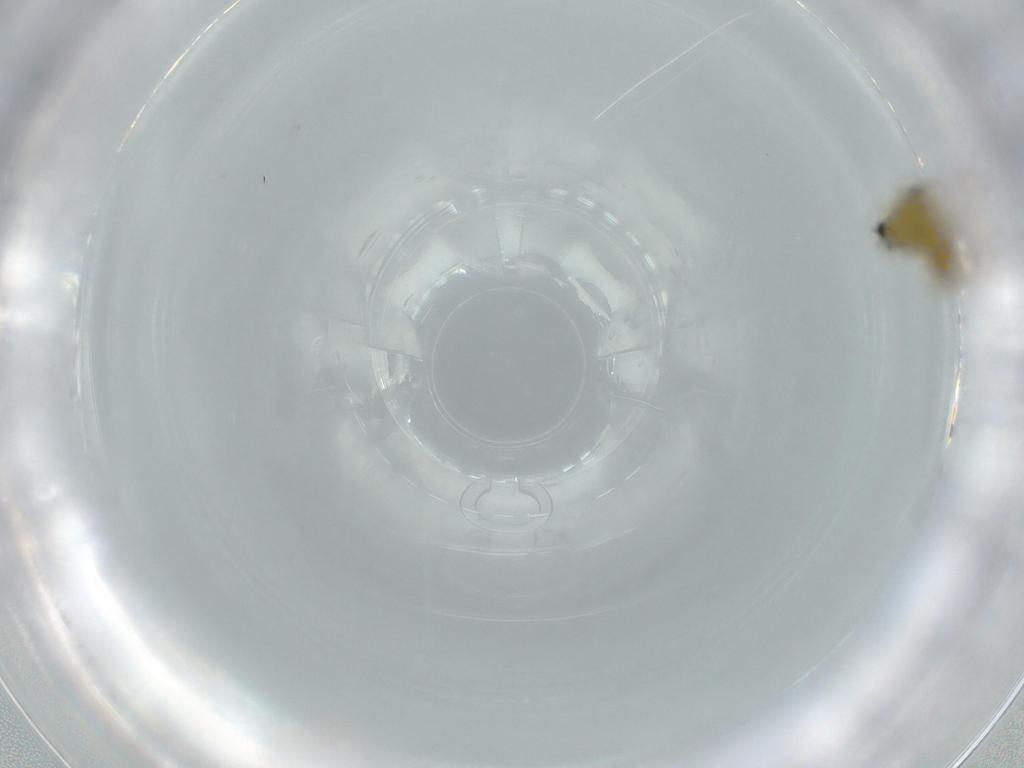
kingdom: Animalia
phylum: Arthropoda
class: Insecta
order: Diptera
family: Chironomidae
